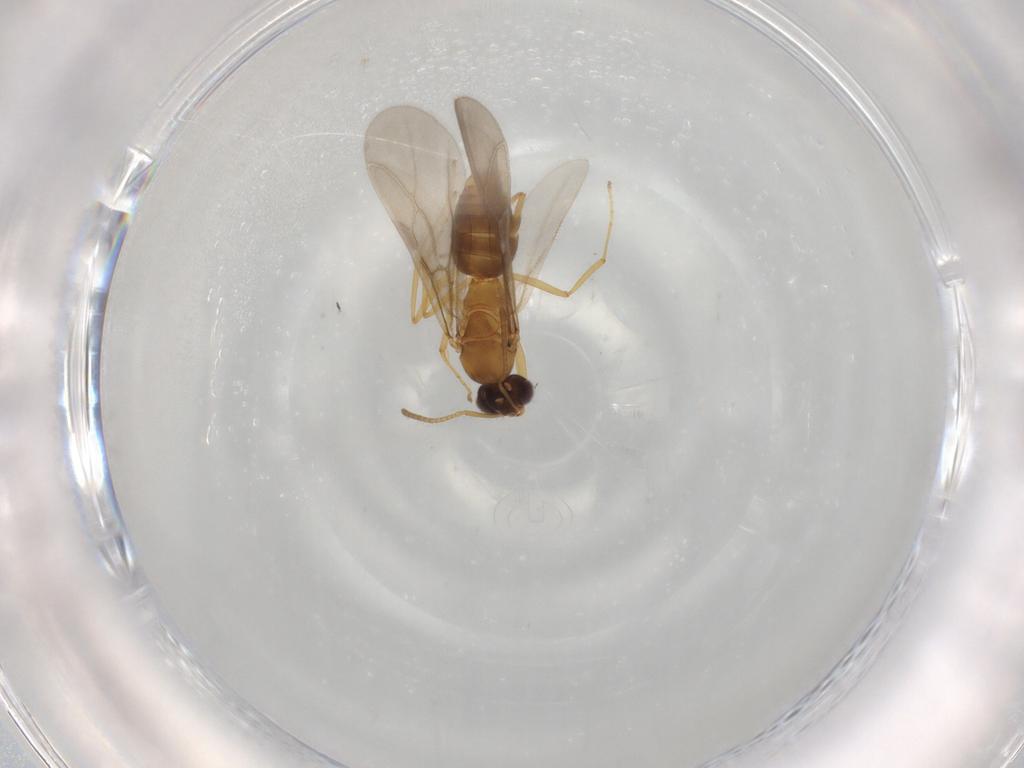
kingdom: Animalia
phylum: Arthropoda
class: Insecta
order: Hymenoptera
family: Formicidae
